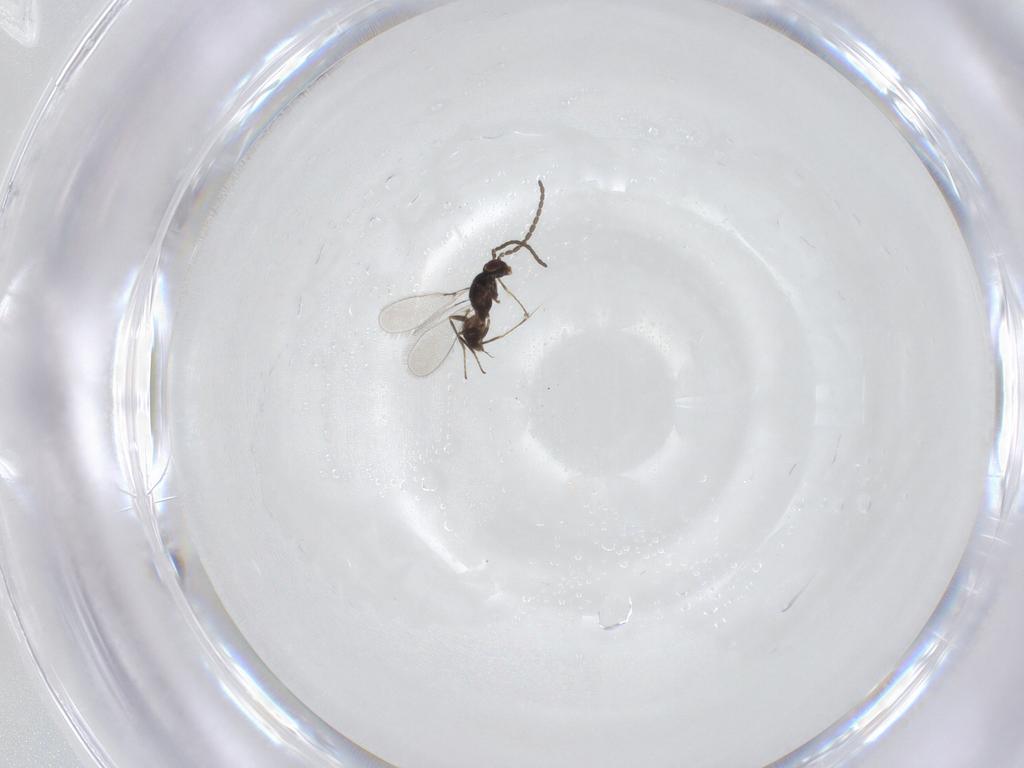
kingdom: Animalia
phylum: Arthropoda
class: Insecta
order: Hymenoptera
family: Mymaridae
